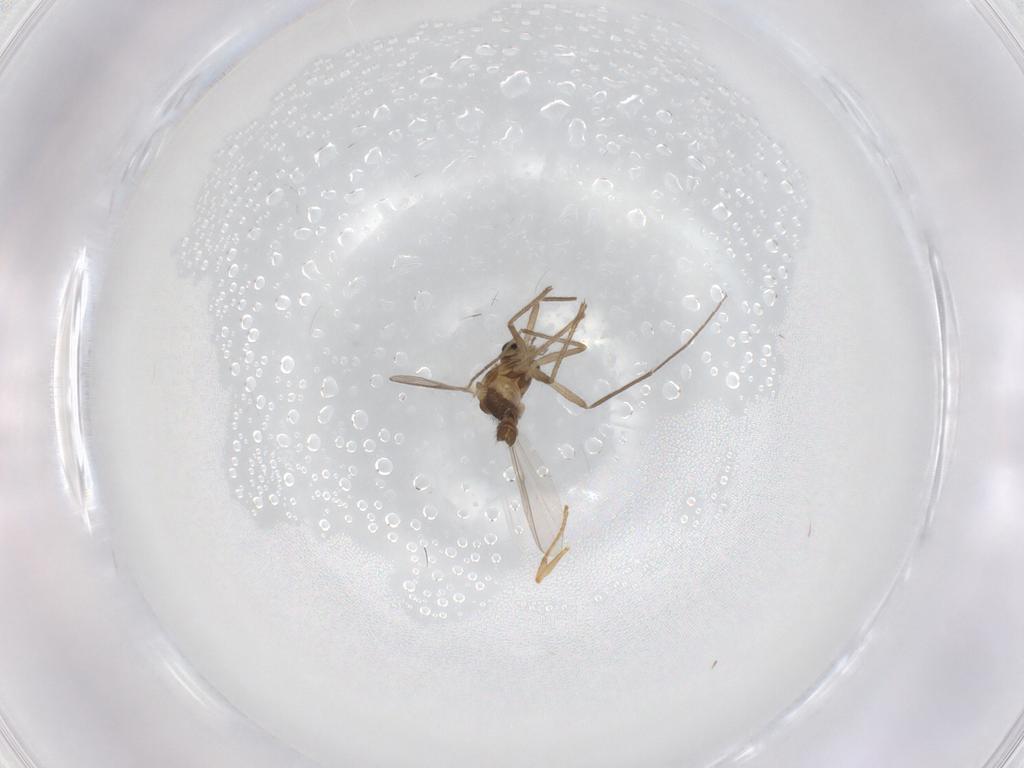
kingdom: Animalia
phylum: Arthropoda
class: Insecta
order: Diptera
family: Chironomidae
